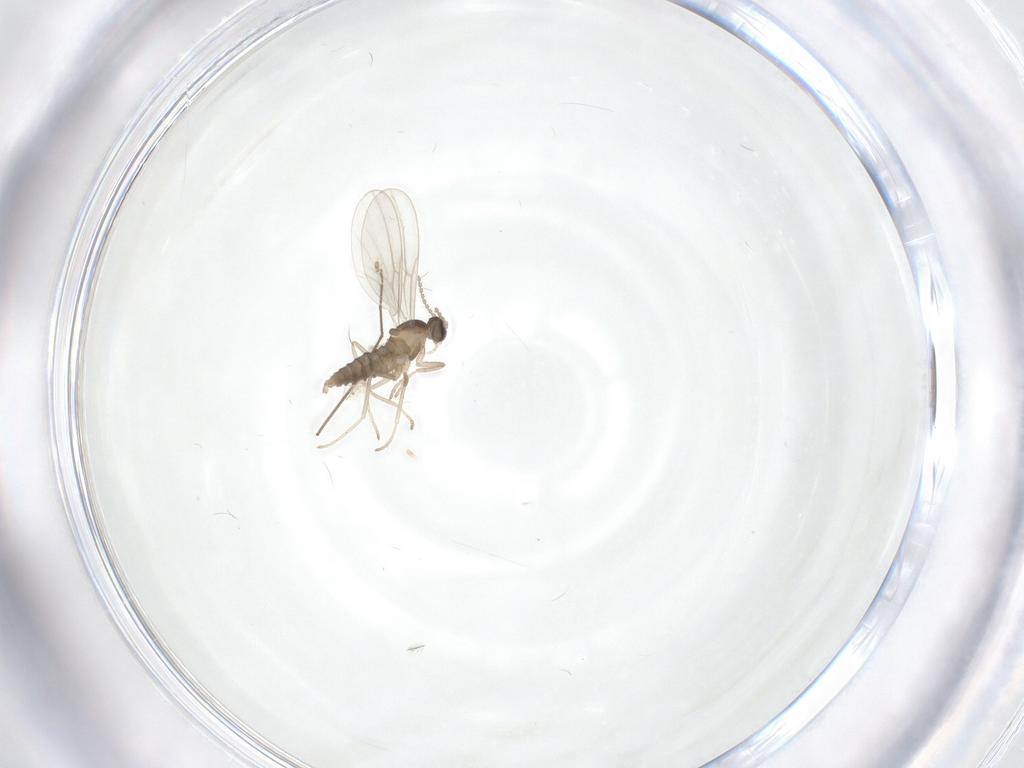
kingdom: Animalia
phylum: Arthropoda
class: Insecta
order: Diptera
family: Cecidomyiidae
